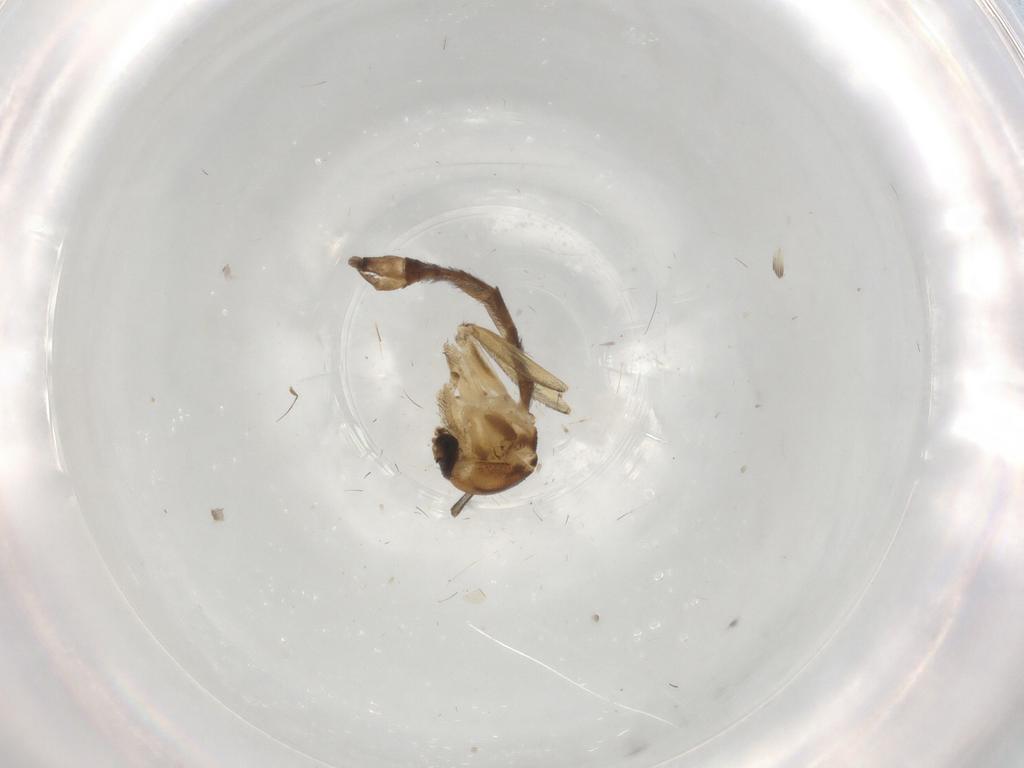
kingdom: Animalia
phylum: Arthropoda
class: Insecta
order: Diptera
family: Keroplatidae
